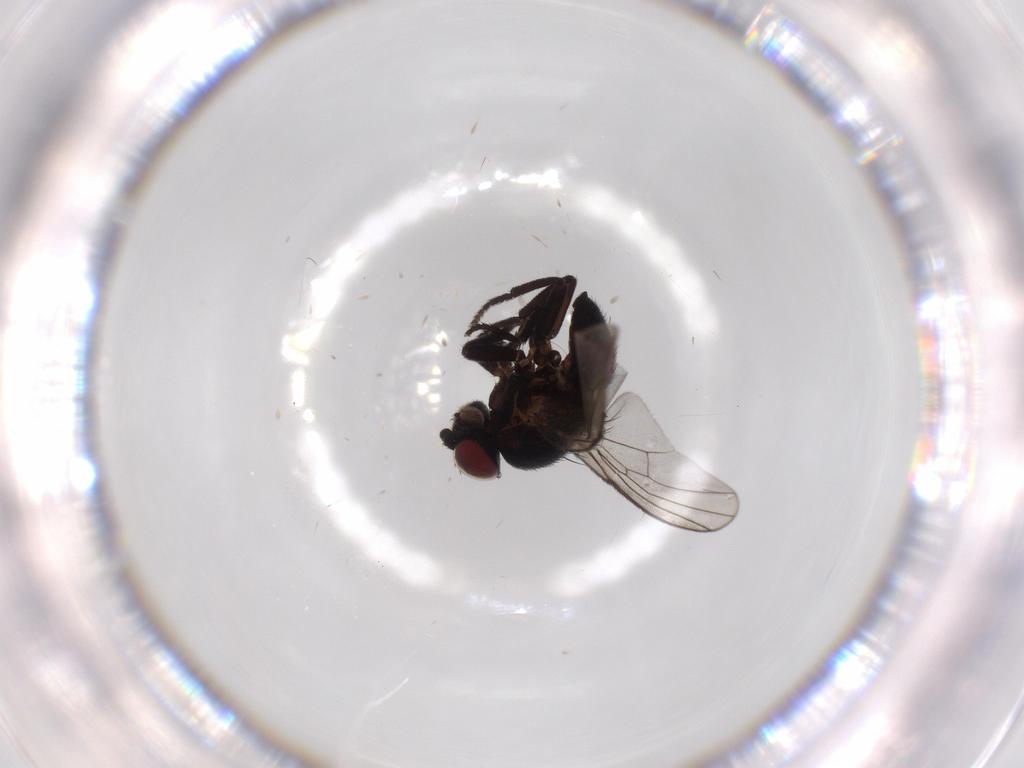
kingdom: Animalia
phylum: Arthropoda
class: Insecta
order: Diptera
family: Agromyzidae
